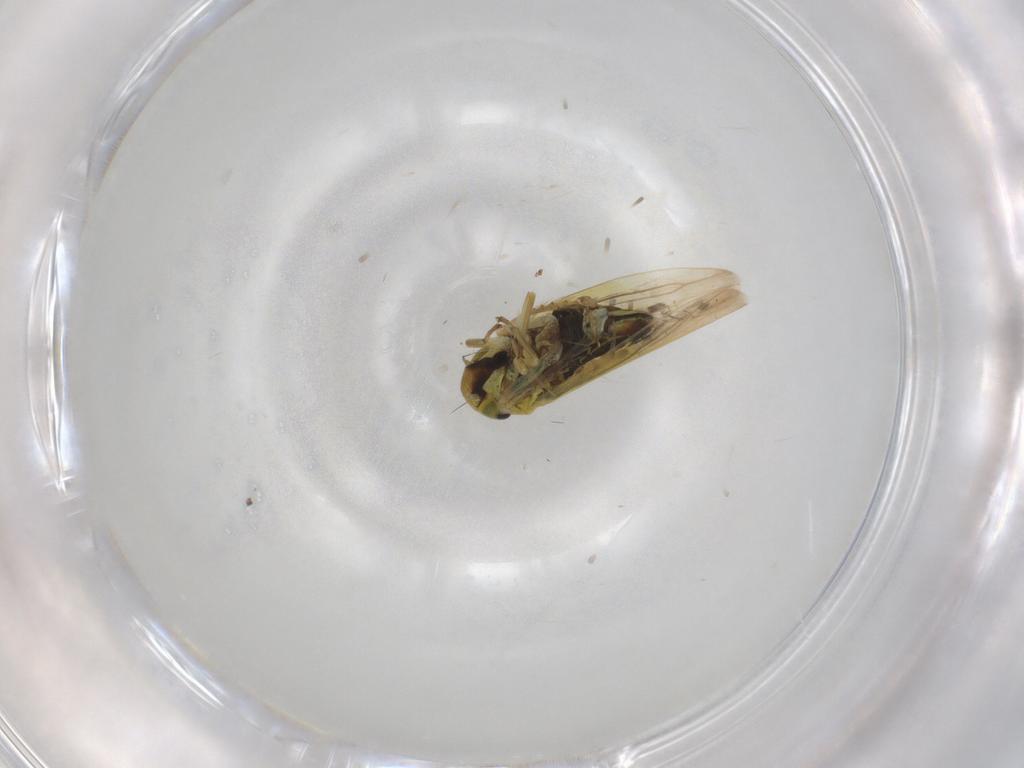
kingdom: Animalia
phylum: Arthropoda
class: Insecta
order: Hemiptera
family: Cicadellidae
